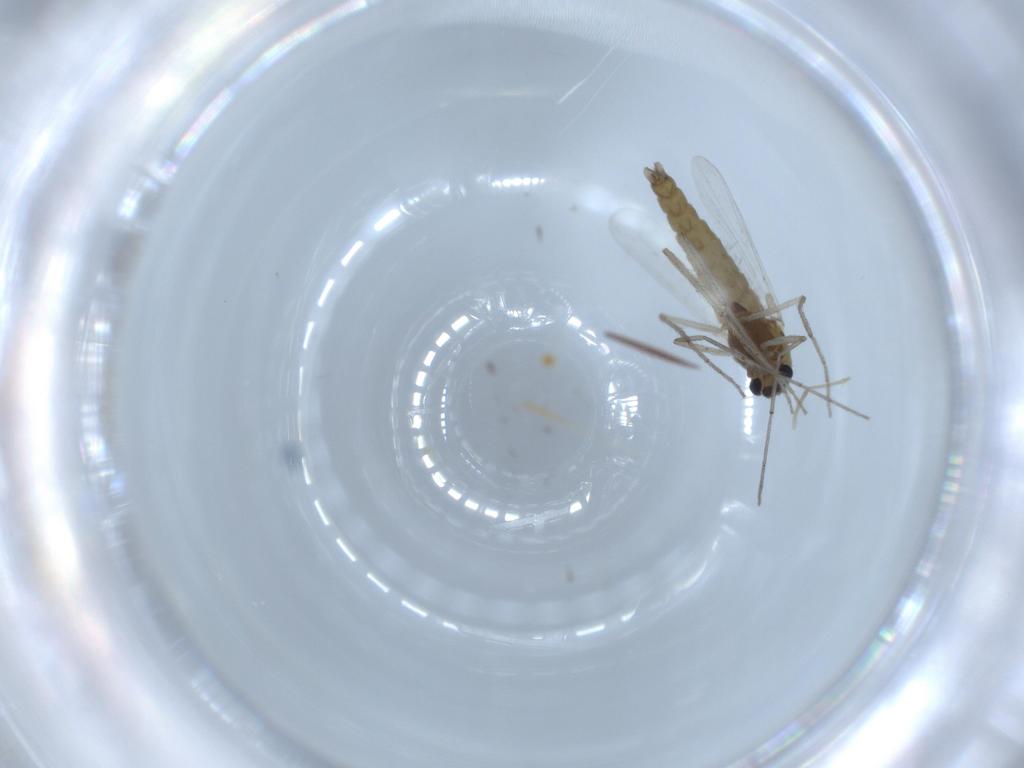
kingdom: Animalia
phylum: Arthropoda
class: Insecta
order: Diptera
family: Chironomidae
